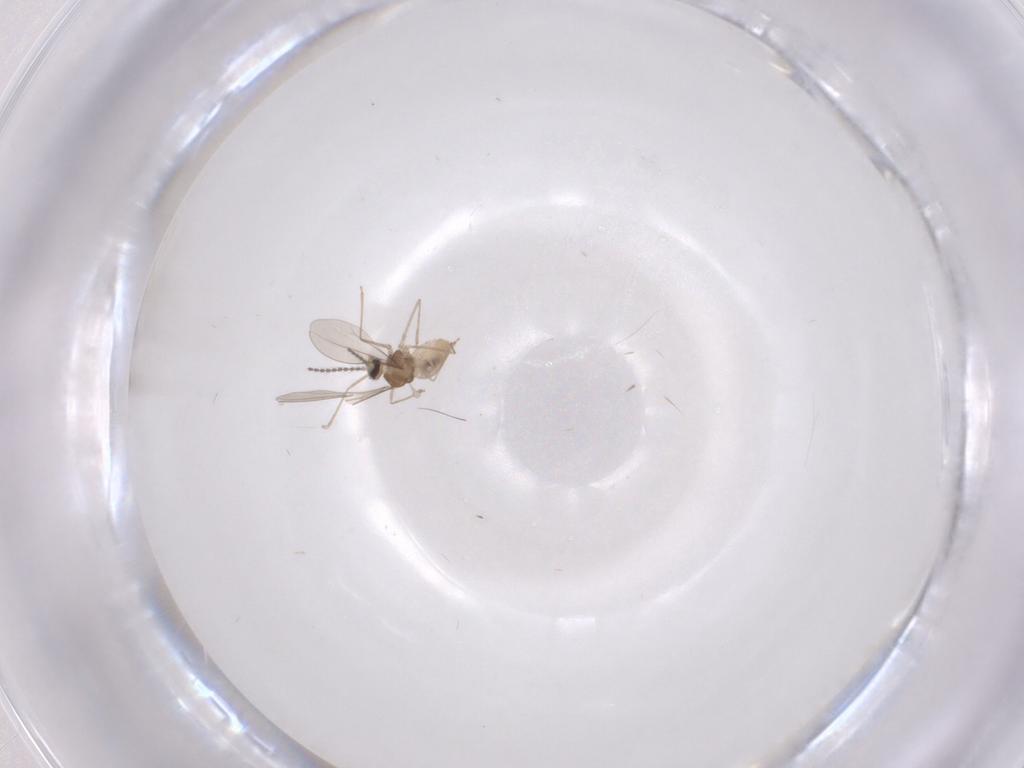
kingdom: Animalia
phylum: Arthropoda
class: Insecta
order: Diptera
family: Cecidomyiidae
